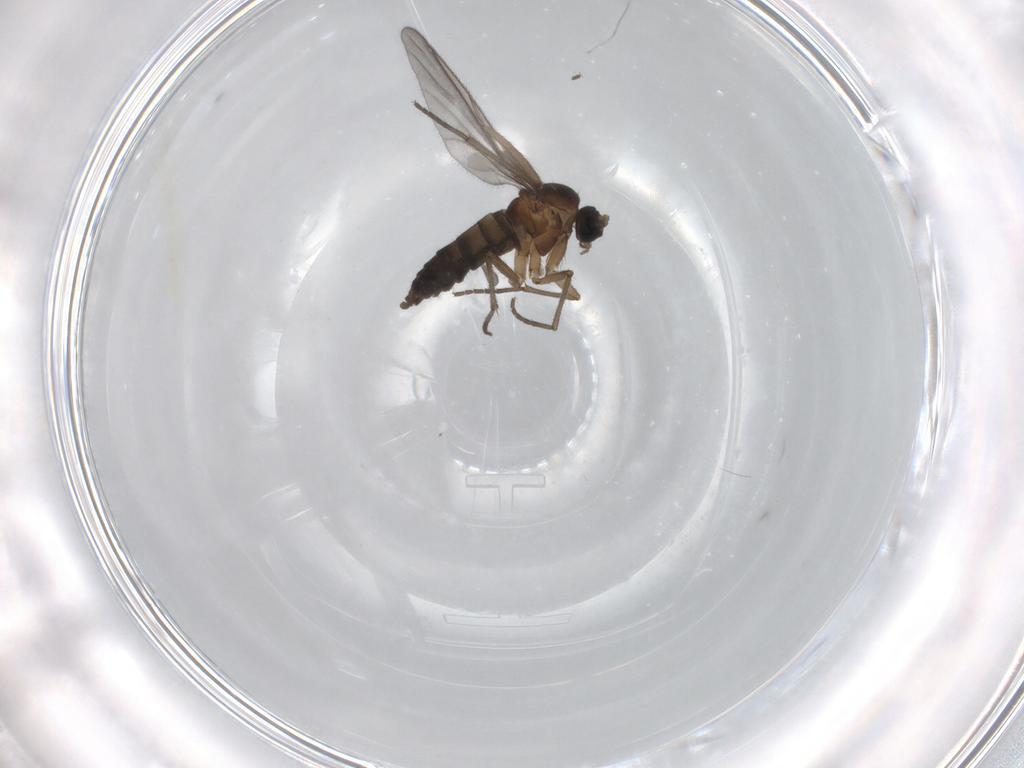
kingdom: Animalia
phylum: Arthropoda
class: Insecta
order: Diptera
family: Sciaridae
